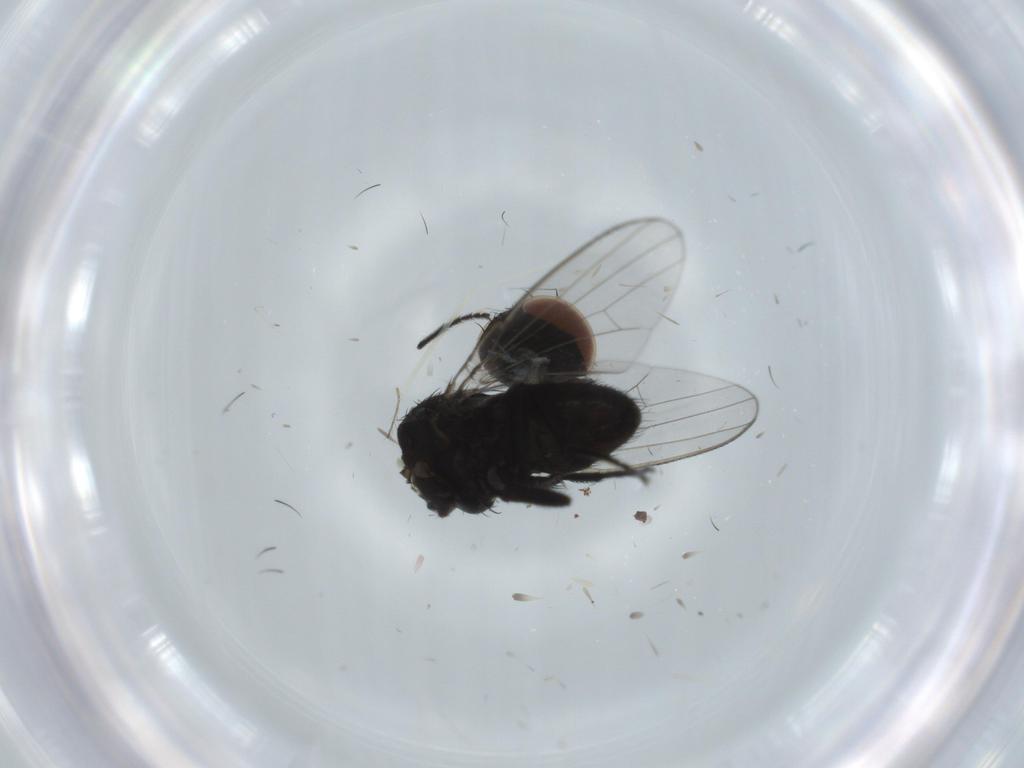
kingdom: Animalia
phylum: Arthropoda
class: Insecta
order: Diptera
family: Milichiidae
